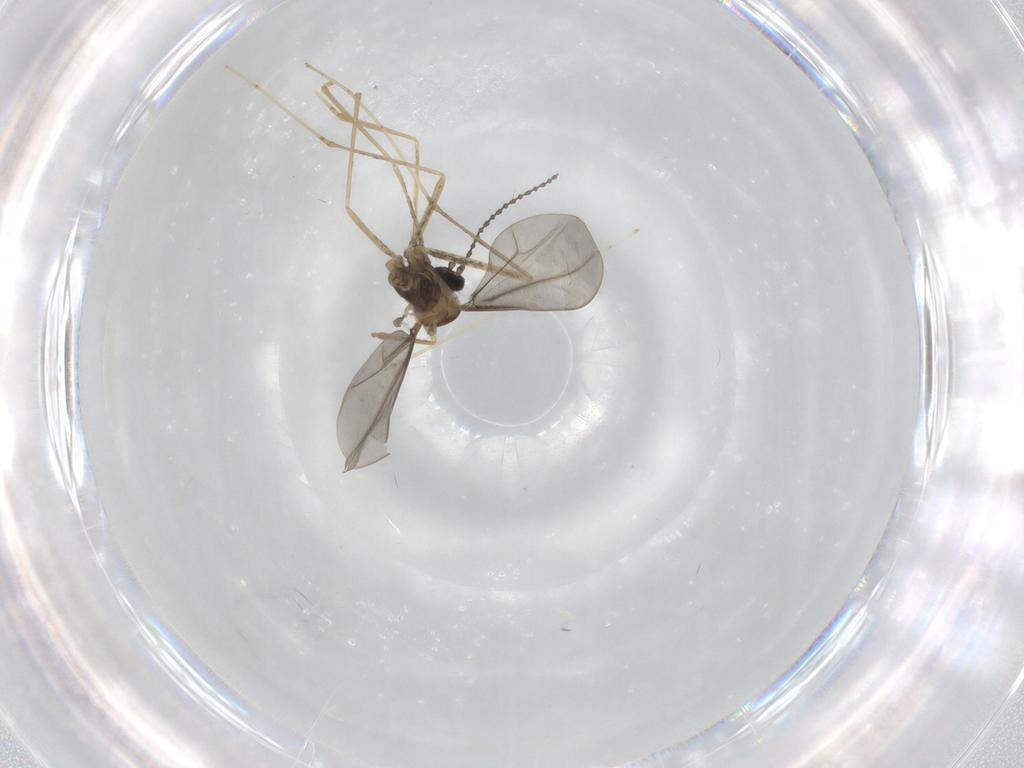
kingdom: Animalia
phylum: Arthropoda
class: Insecta
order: Diptera
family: Cecidomyiidae
